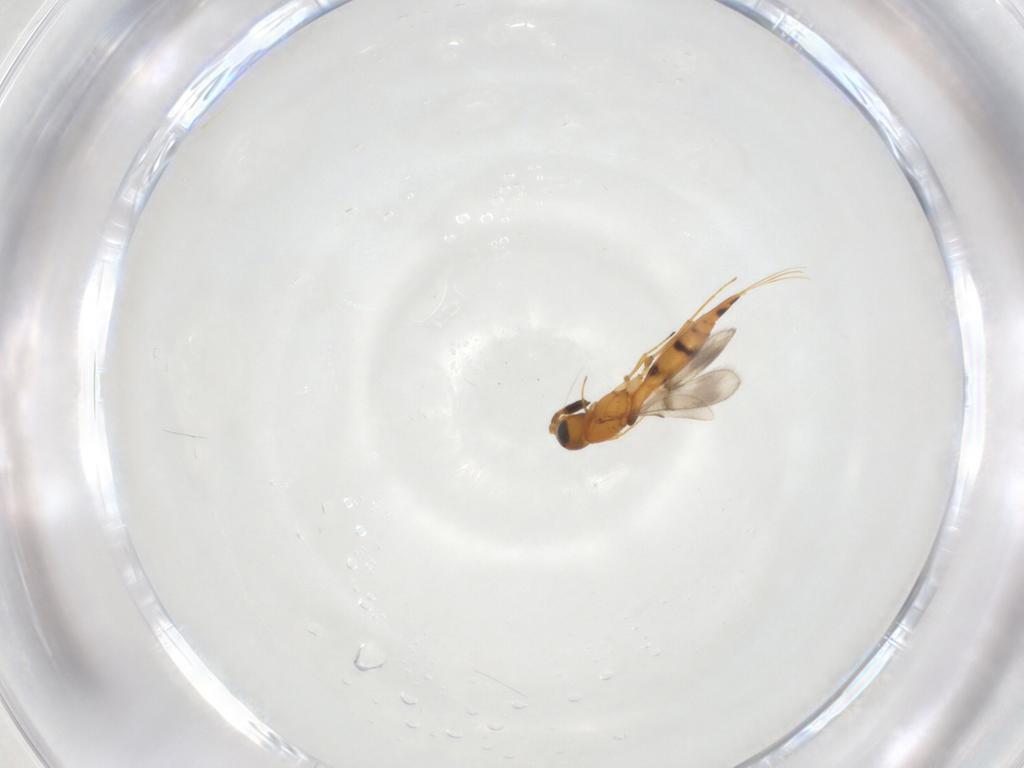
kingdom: Animalia
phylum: Arthropoda
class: Insecta
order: Hymenoptera
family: Scelionidae
